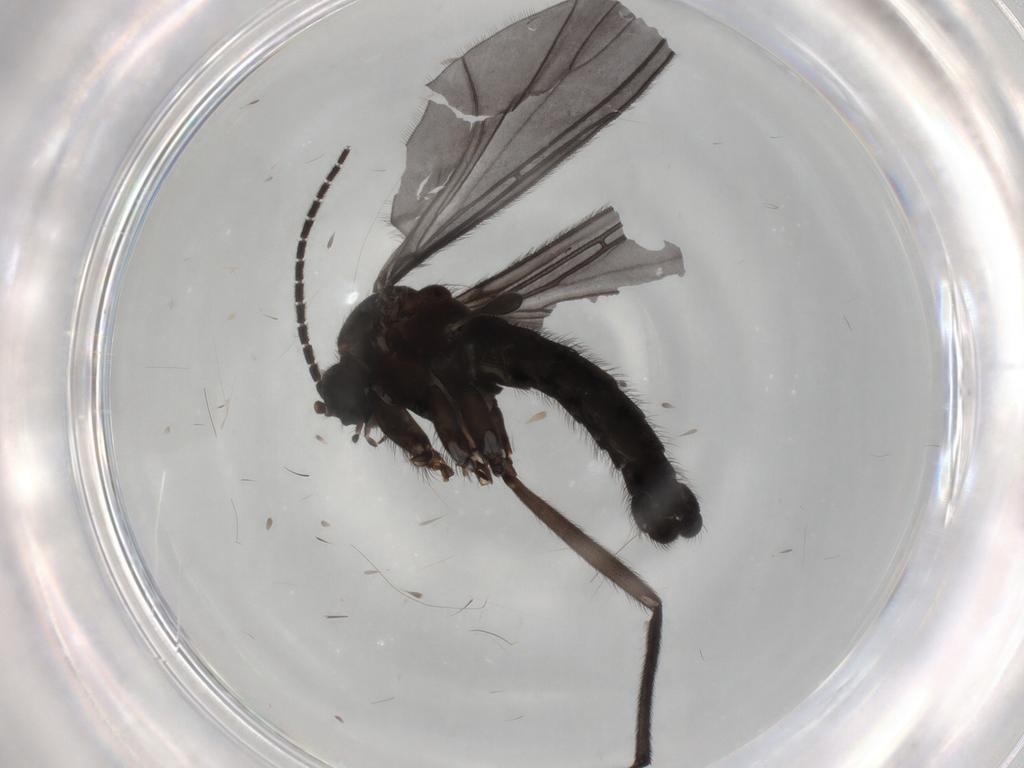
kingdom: Animalia
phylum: Arthropoda
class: Insecta
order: Diptera
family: Sciaridae
